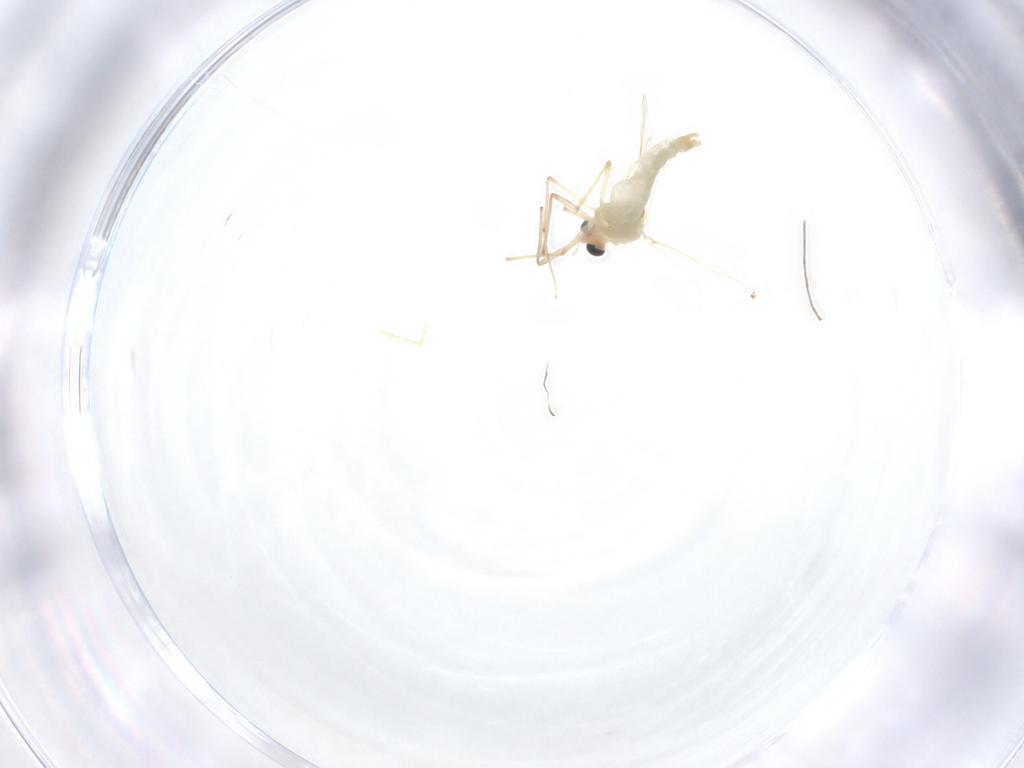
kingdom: Animalia
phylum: Arthropoda
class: Insecta
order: Diptera
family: Chironomidae
